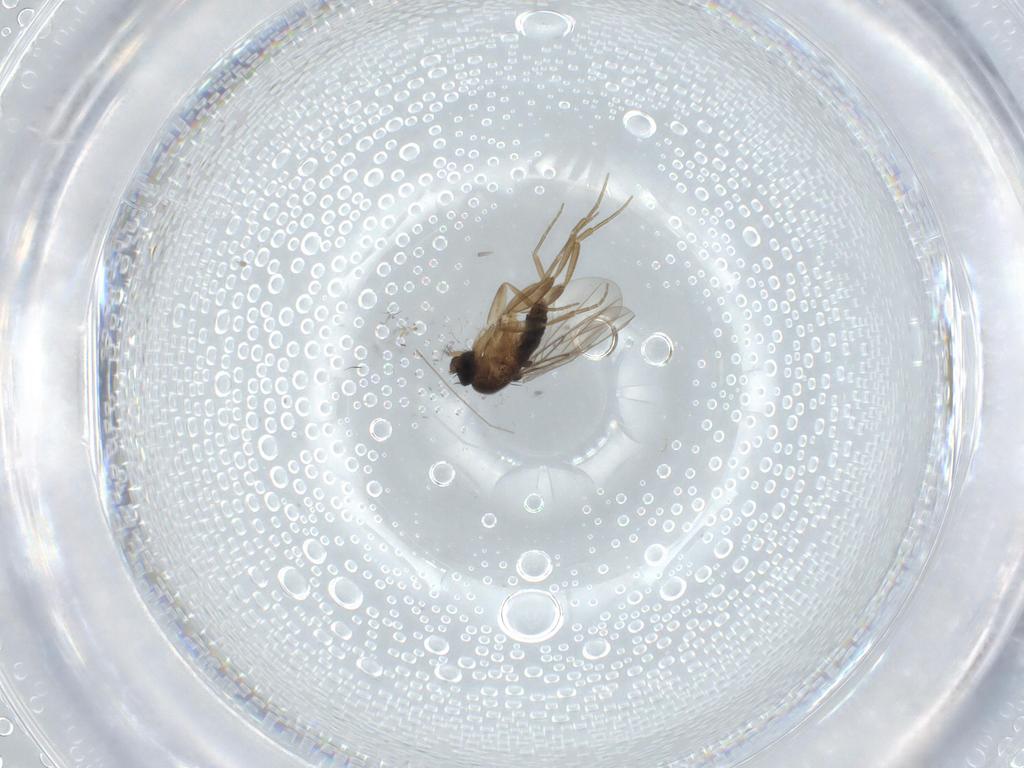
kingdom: Animalia
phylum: Arthropoda
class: Insecta
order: Diptera
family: Phoridae
